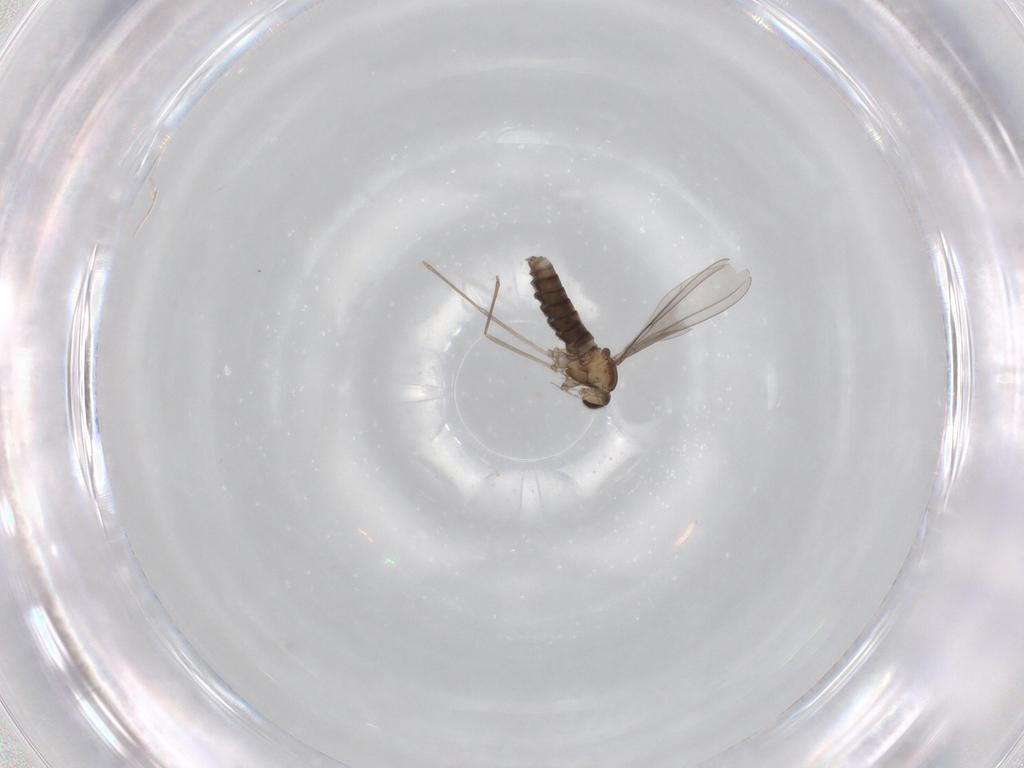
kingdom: Animalia
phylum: Arthropoda
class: Insecta
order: Diptera
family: Cecidomyiidae
